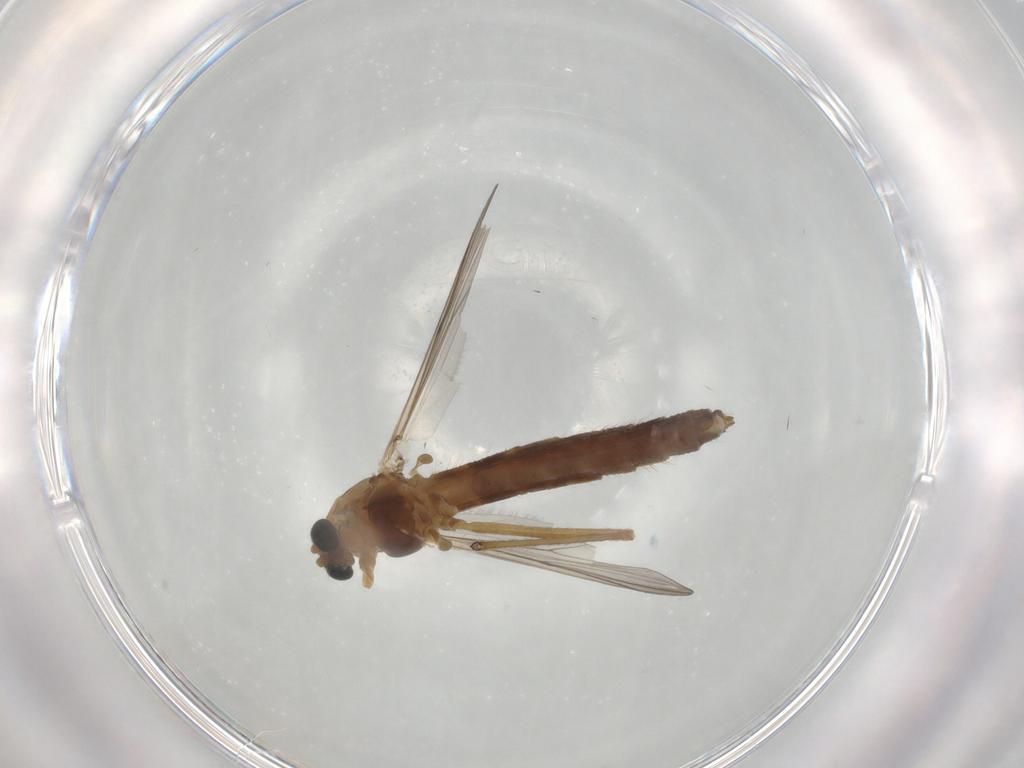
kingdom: Animalia
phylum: Arthropoda
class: Insecta
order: Diptera
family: Chironomidae
